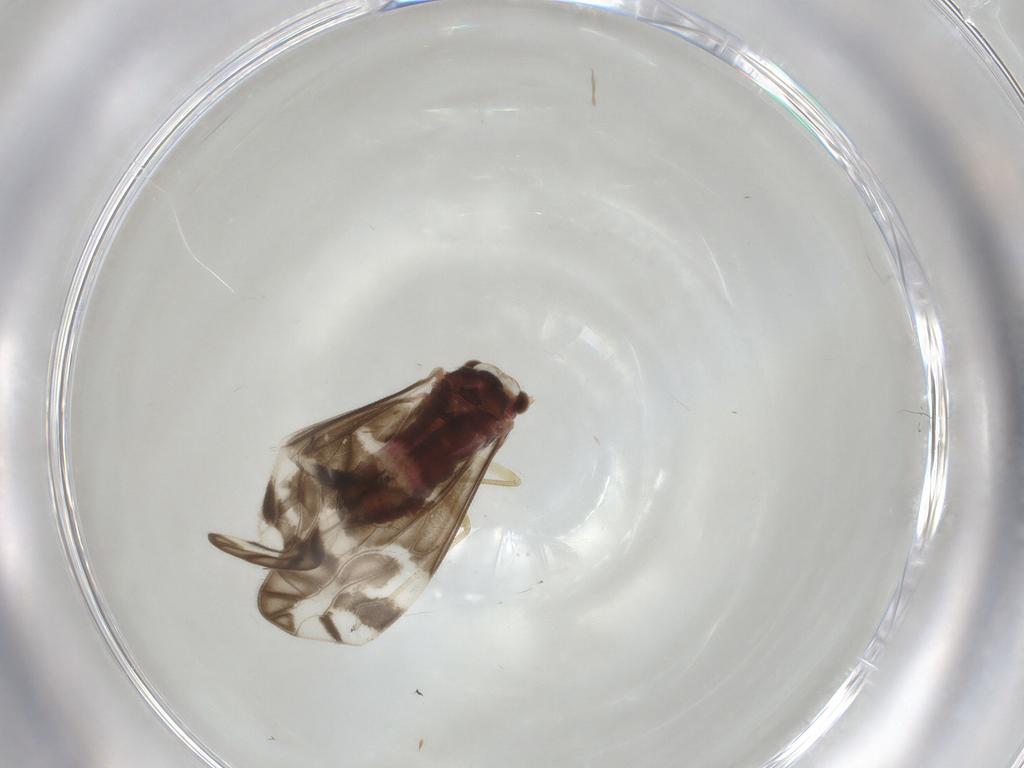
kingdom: Animalia
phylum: Arthropoda
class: Insecta
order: Psocodea
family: Caeciliusidae
